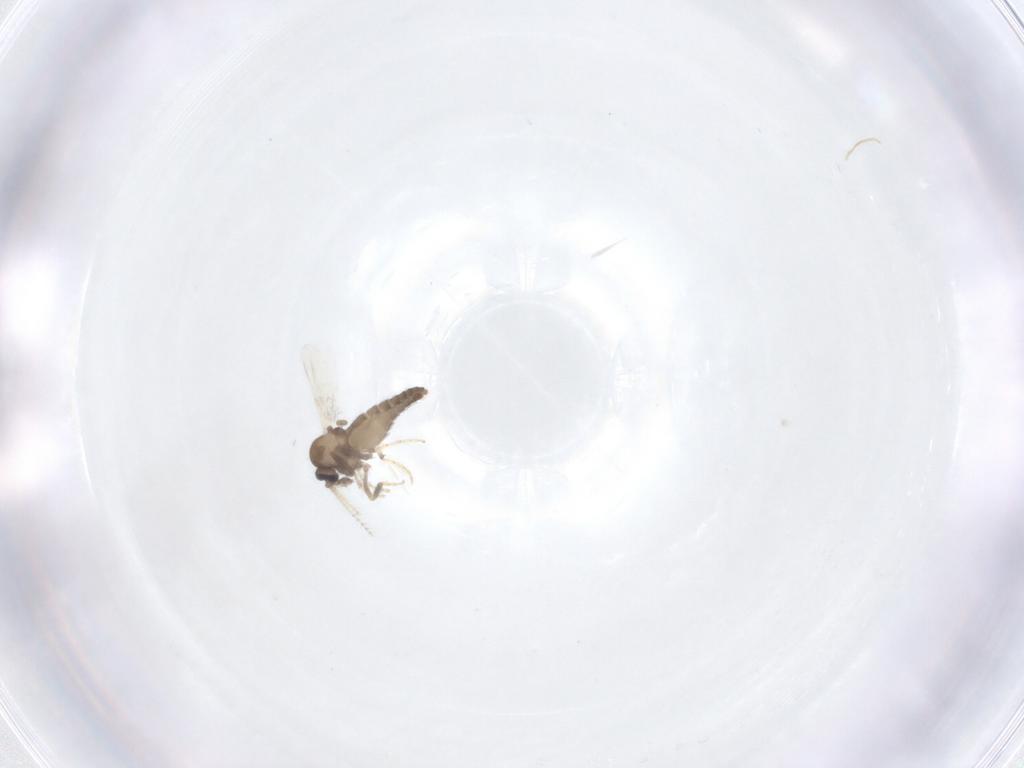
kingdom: Animalia
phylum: Arthropoda
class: Insecta
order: Diptera
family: Ceratopogonidae
